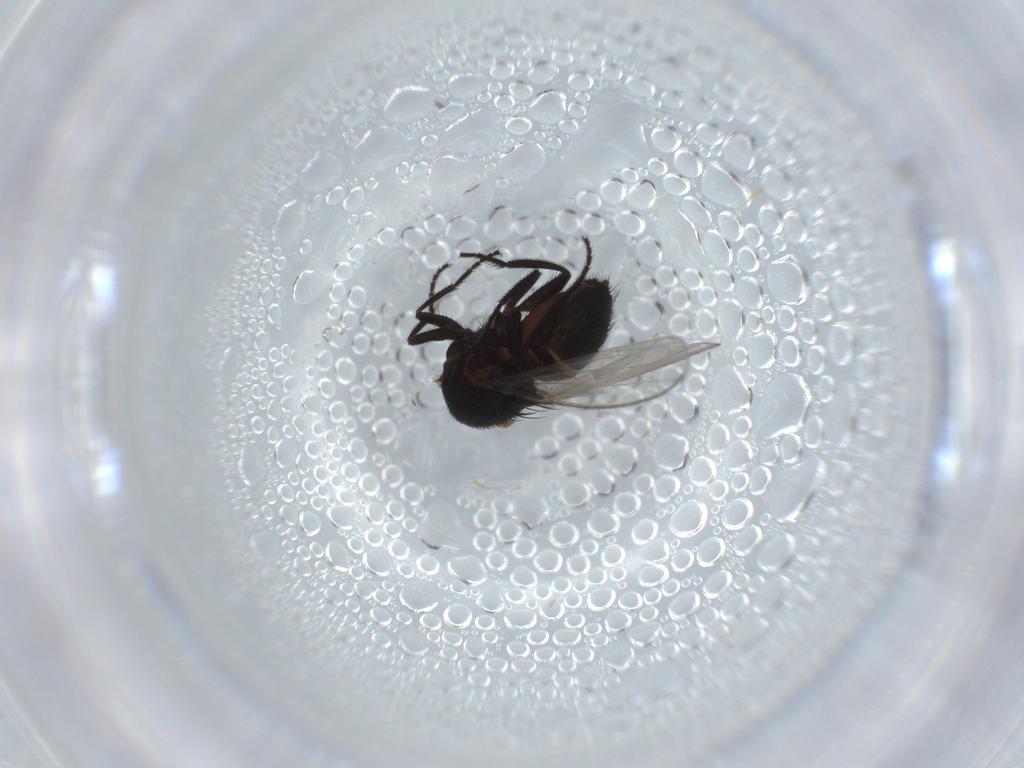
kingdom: Animalia
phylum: Arthropoda
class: Insecta
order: Diptera
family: Milichiidae
